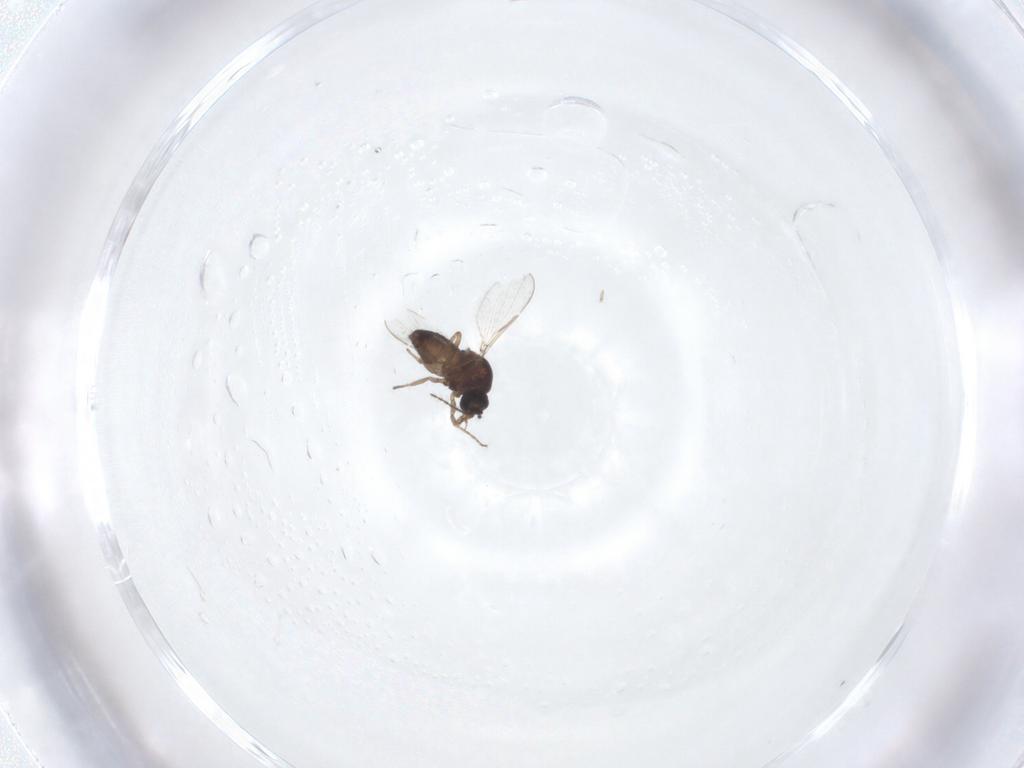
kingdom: Animalia
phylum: Arthropoda
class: Insecta
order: Diptera
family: Ceratopogonidae
